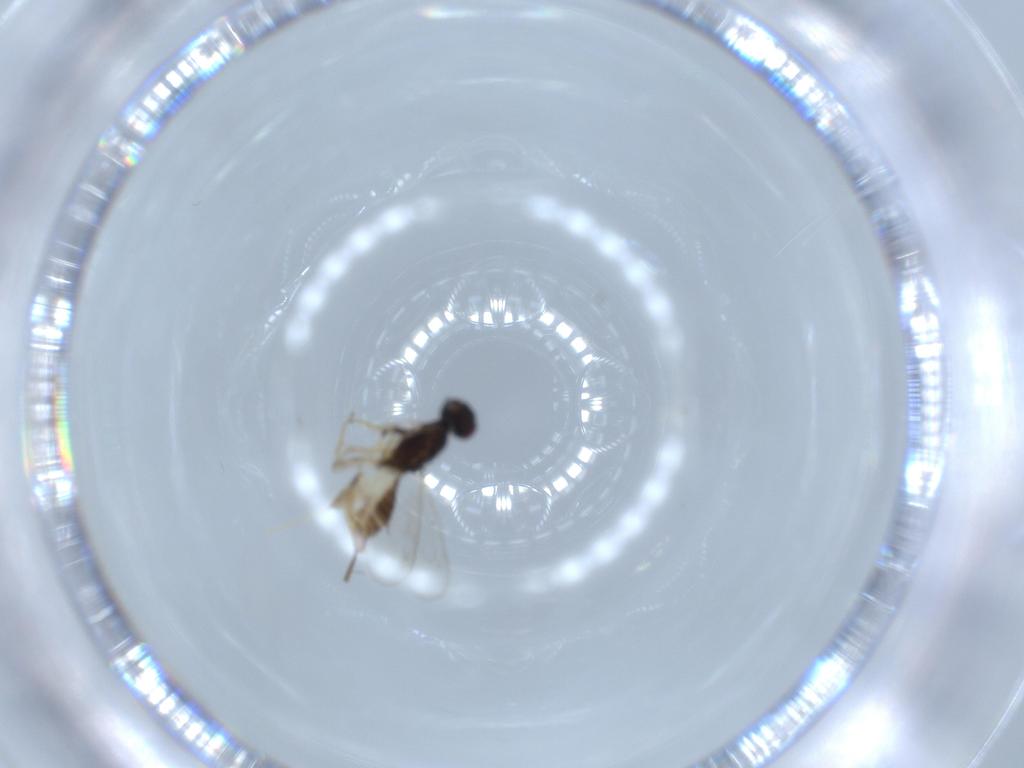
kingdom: Animalia
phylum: Arthropoda
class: Insecta
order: Hymenoptera
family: Eupelmidae
